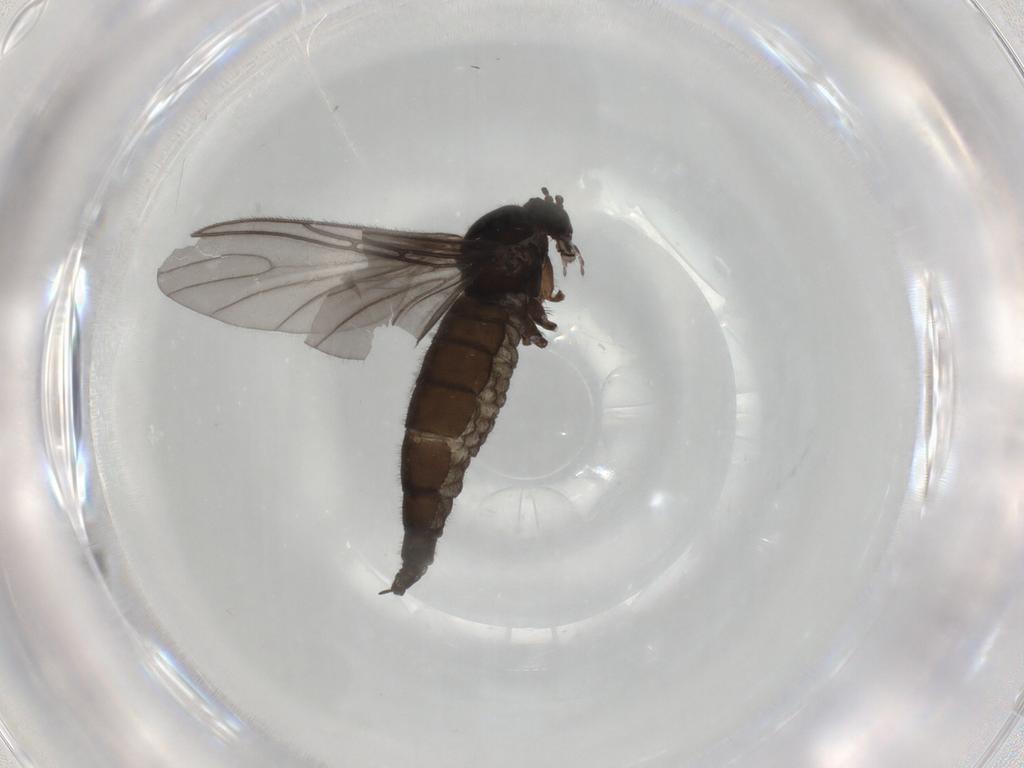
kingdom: Animalia
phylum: Arthropoda
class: Insecta
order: Diptera
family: Sciaridae
